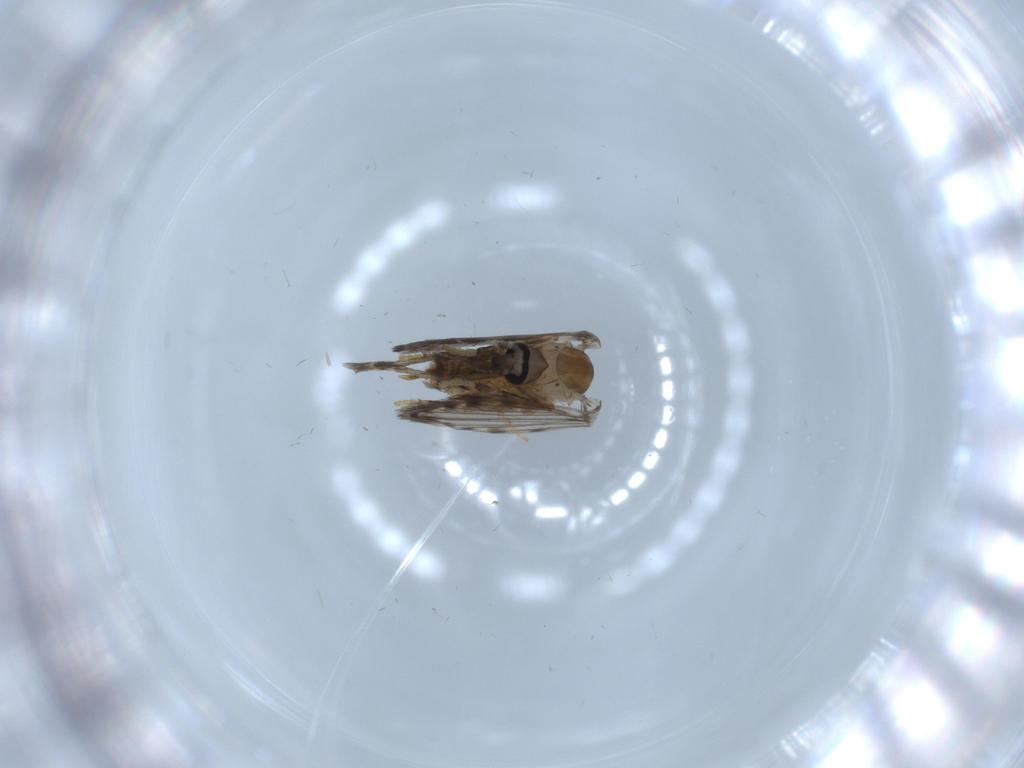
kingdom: Animalia
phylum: Arthropoda
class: Insecta
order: Diptera
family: Psychodidae
